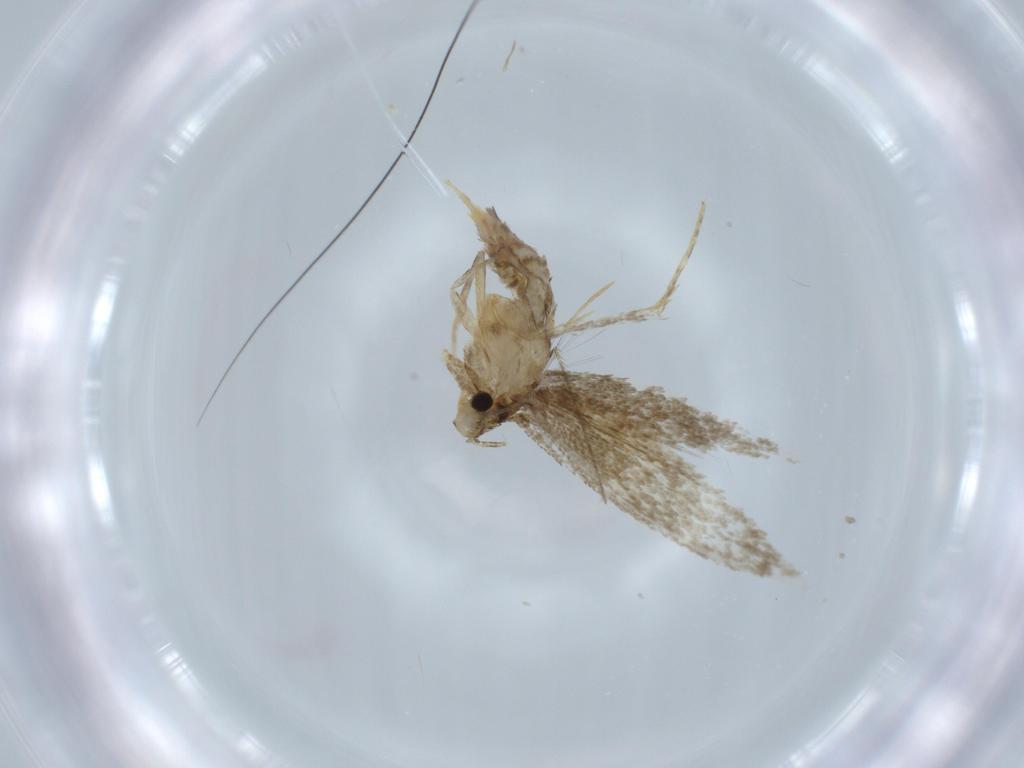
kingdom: Animalia
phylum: Arthropoda
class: Insecta
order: Lepidoptera
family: Tineidae
